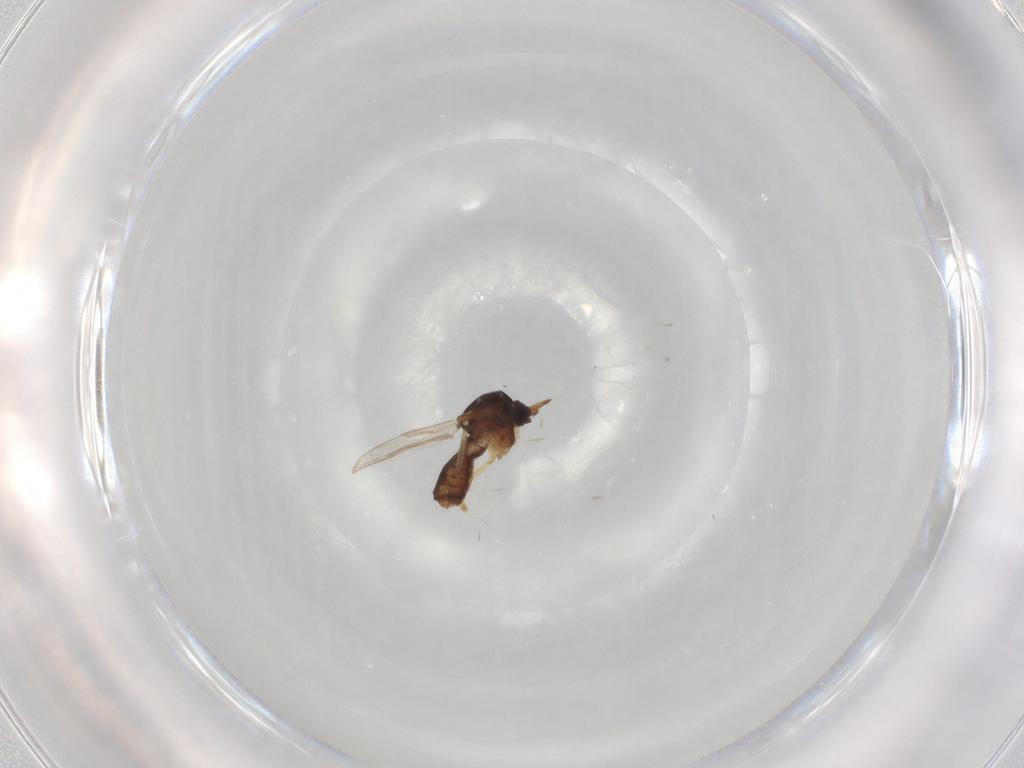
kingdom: Animalia
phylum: Arthropoda
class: Insecta
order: Diptera
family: Ceratopogonidae
